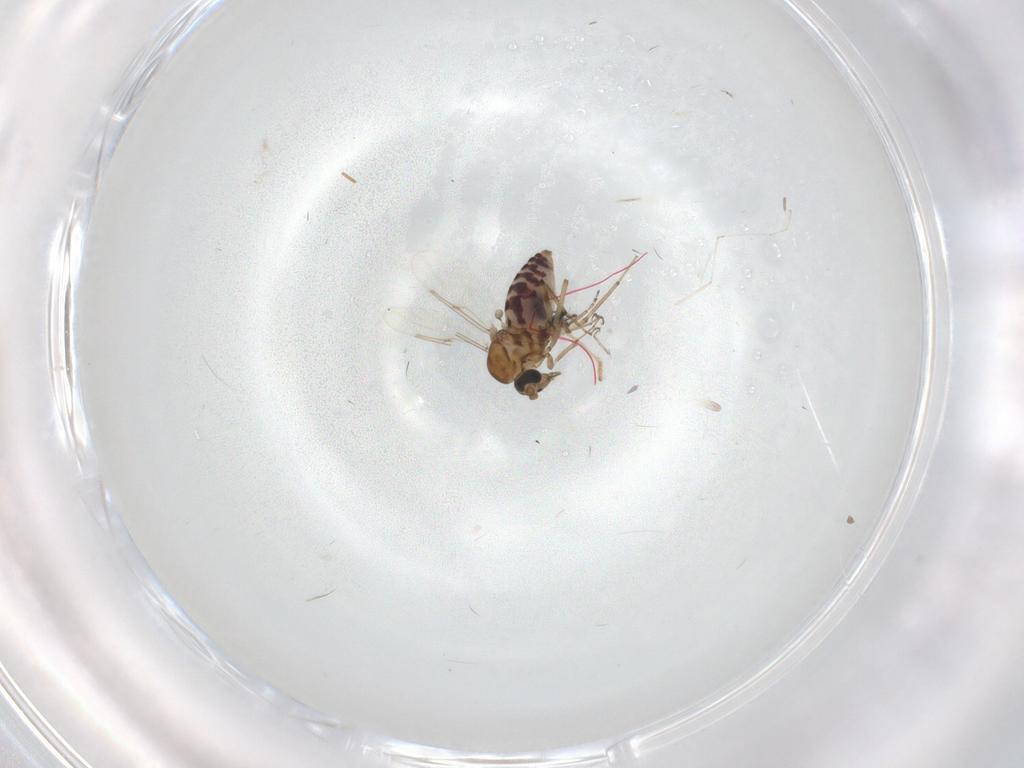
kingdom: Animalia
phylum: Arthropoda
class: Insecta
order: Diptera
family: Ceratopogonidae
